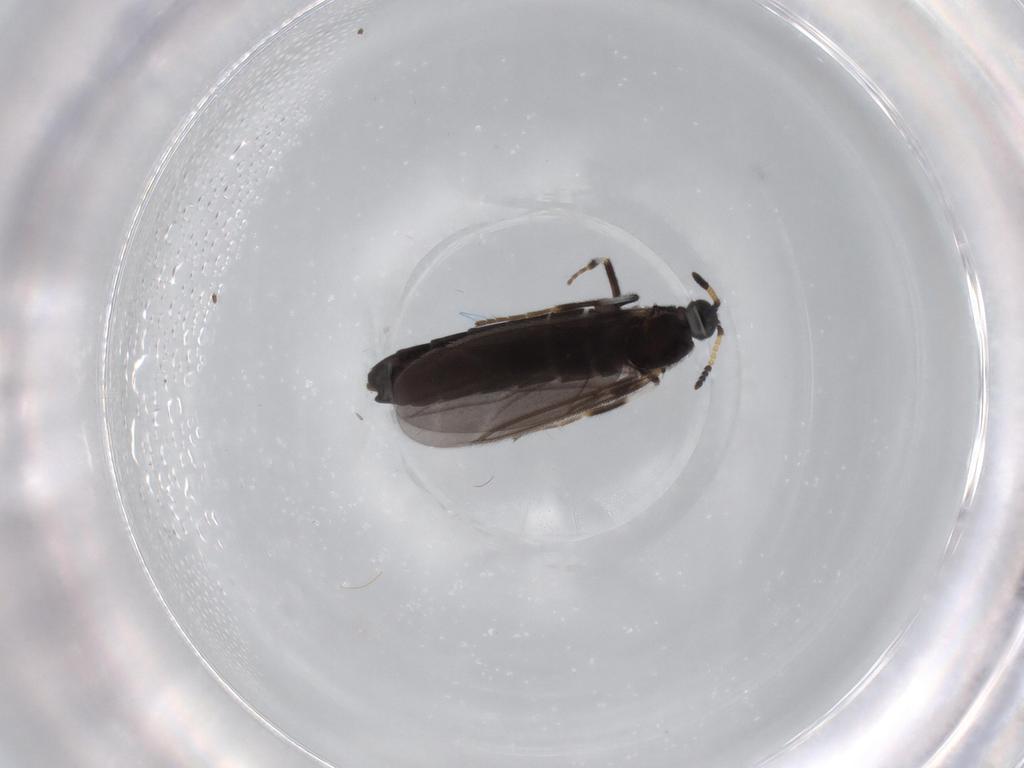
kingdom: Animalia
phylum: Arthropoda
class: Insecta
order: Diptera
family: Scatopsidae
